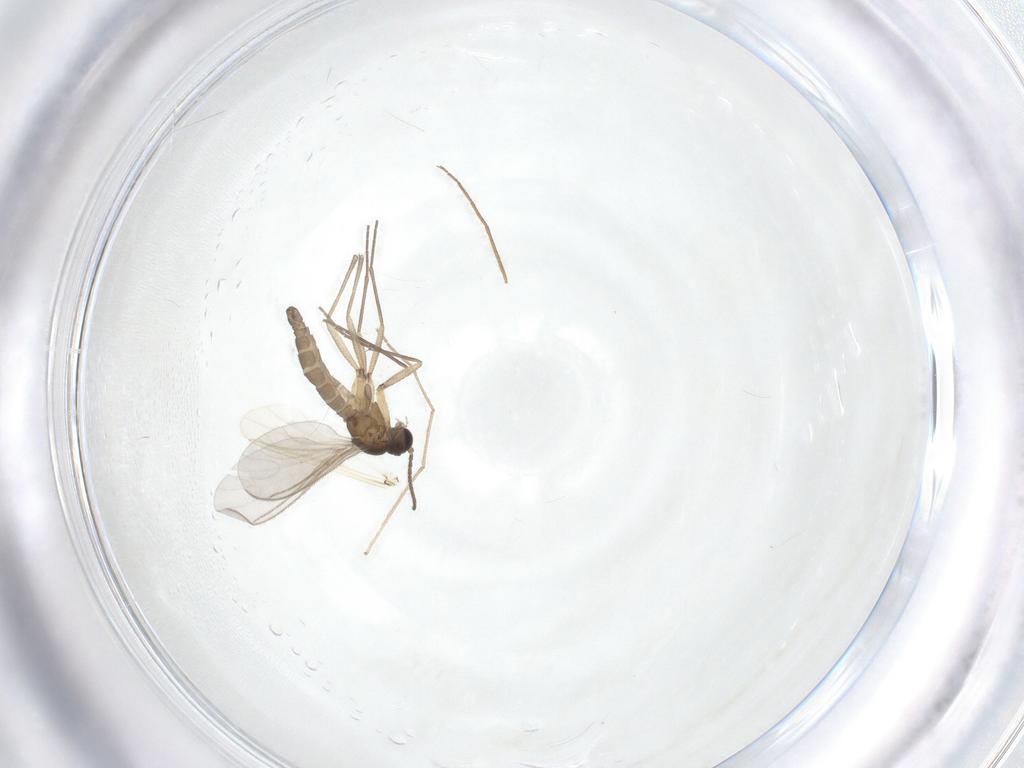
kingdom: Animalia
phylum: Arthropoda
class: Insecta
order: Diptera
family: Sciaridae
